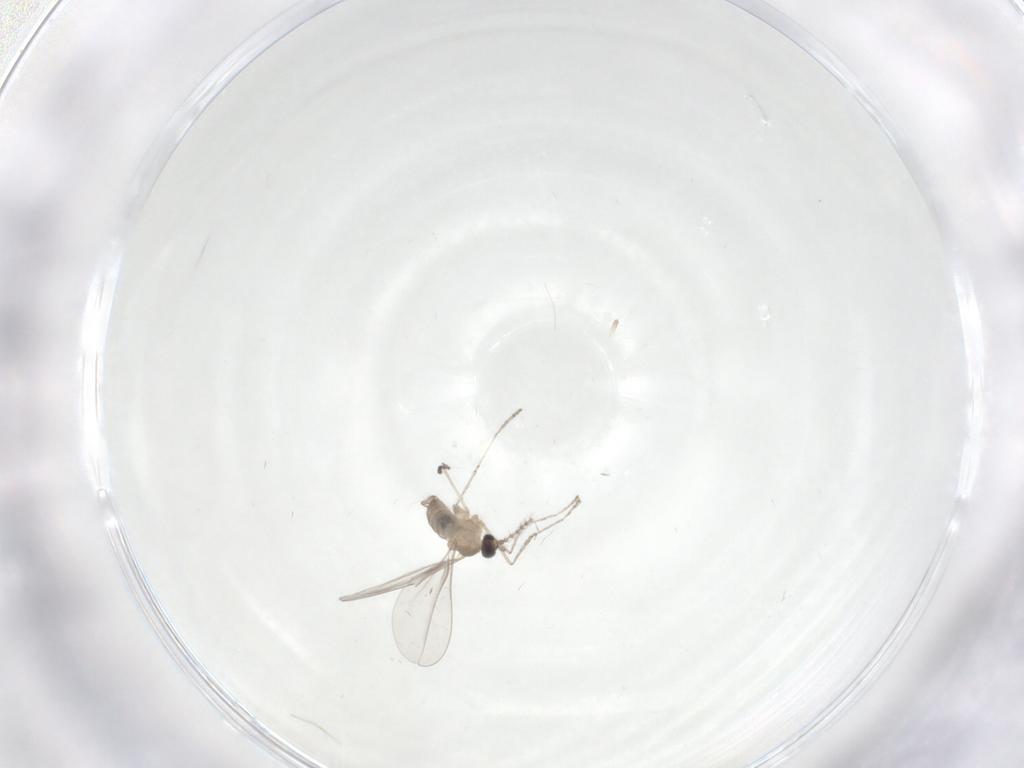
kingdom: Animalia
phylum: Arthropoda
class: Insecta
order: Diptera
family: Cecidomyiidae
